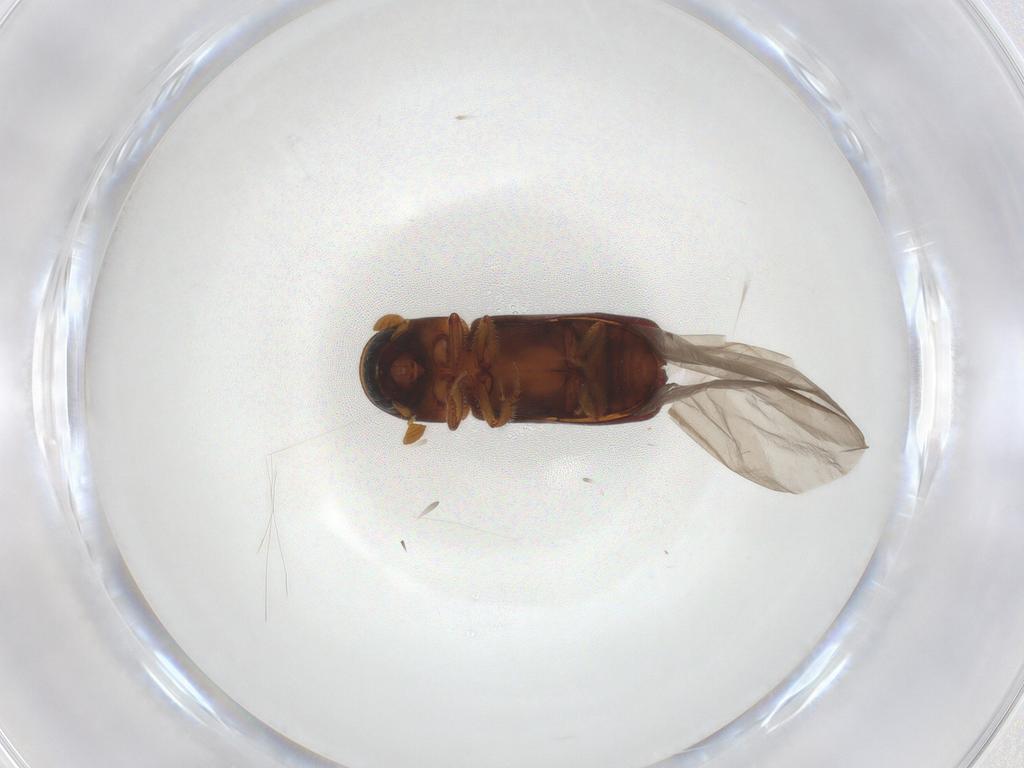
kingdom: Animalia
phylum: Arthropoda
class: Insecta
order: Coleoptera
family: Curculionidae
